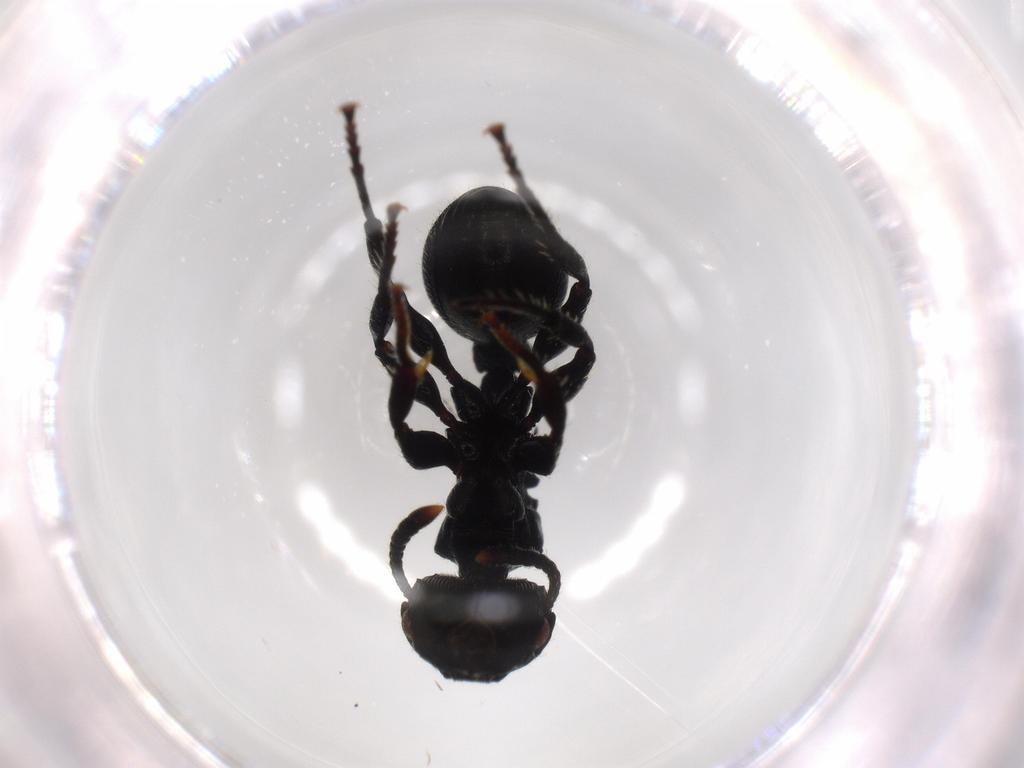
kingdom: Animalia
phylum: Arthropoda
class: Insecta
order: Hymenoptera
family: Formicidae
